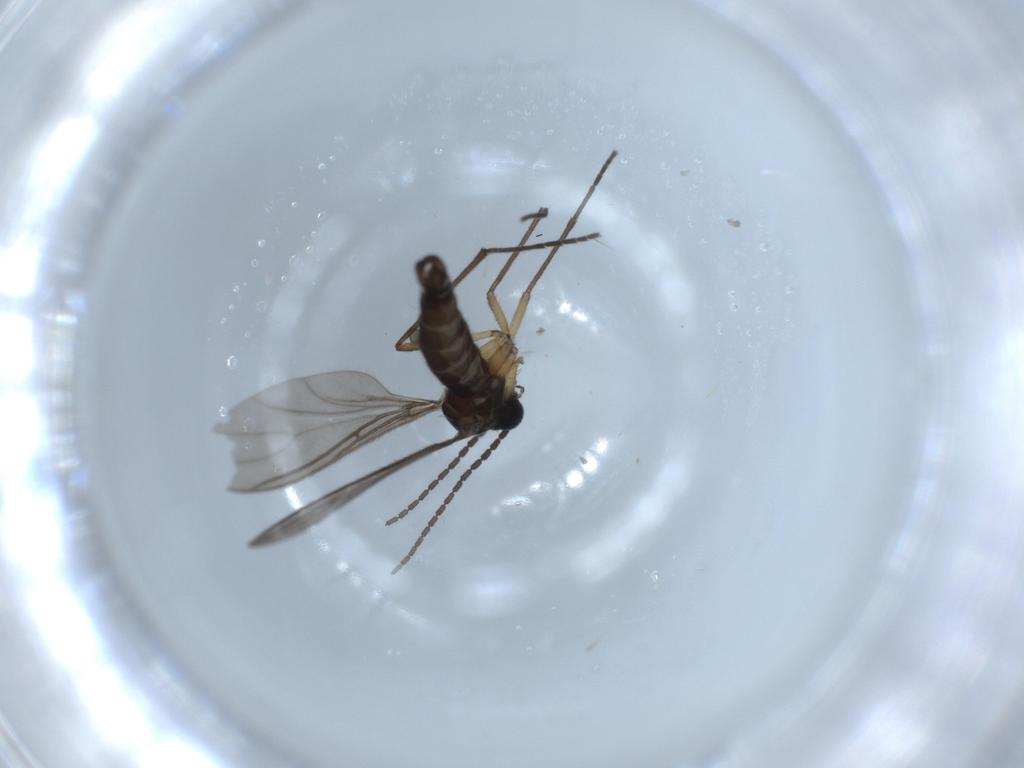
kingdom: Animalia
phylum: Arthropoda
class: Insecta
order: Diptera
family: Sciaridae
